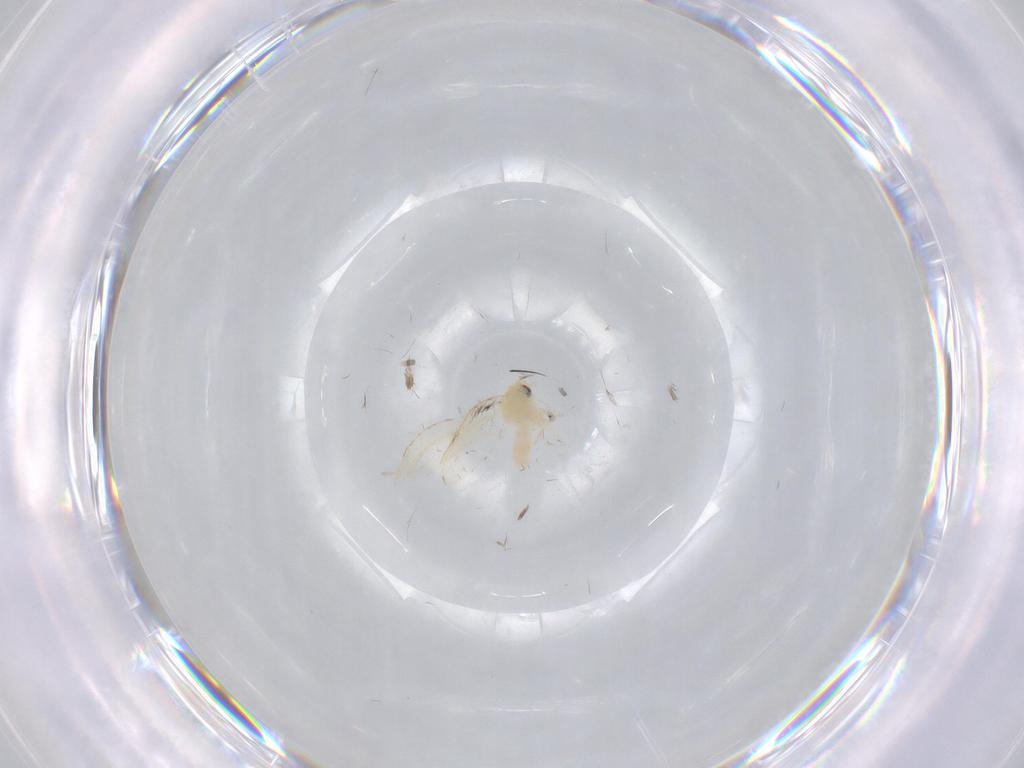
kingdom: Animalia
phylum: Arthropoda
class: Insecta
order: Hemiptera
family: Aleyrodidae
